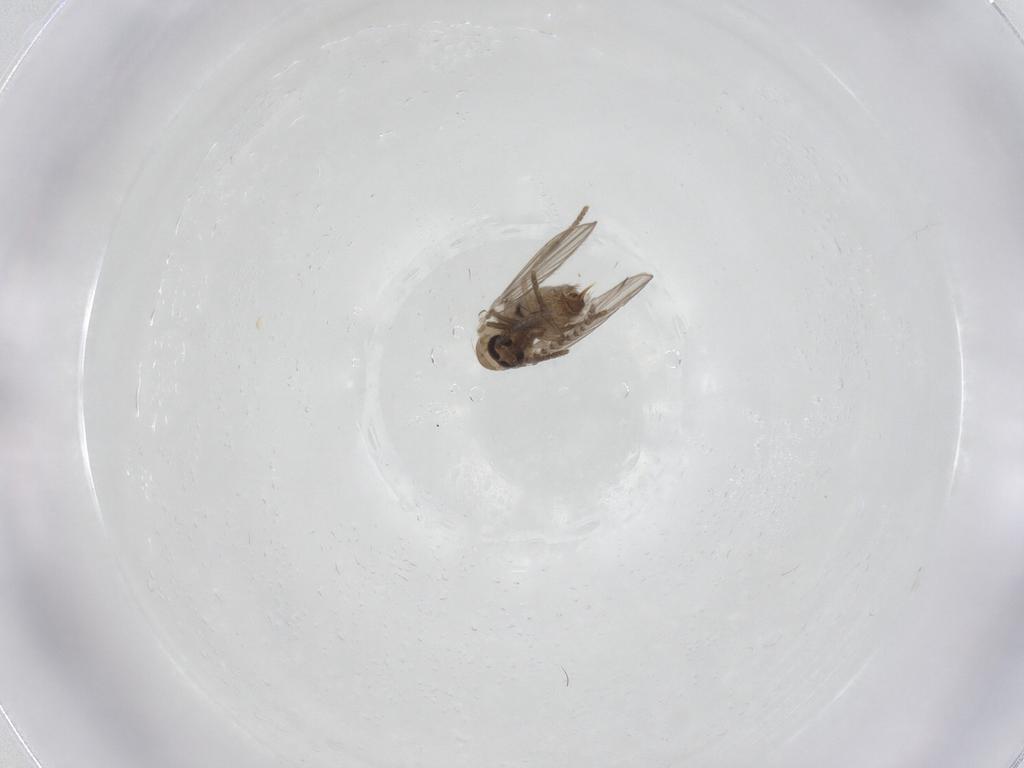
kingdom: Animalia
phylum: Arthropoda
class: Insecta
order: Diptera
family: Psychodidae
